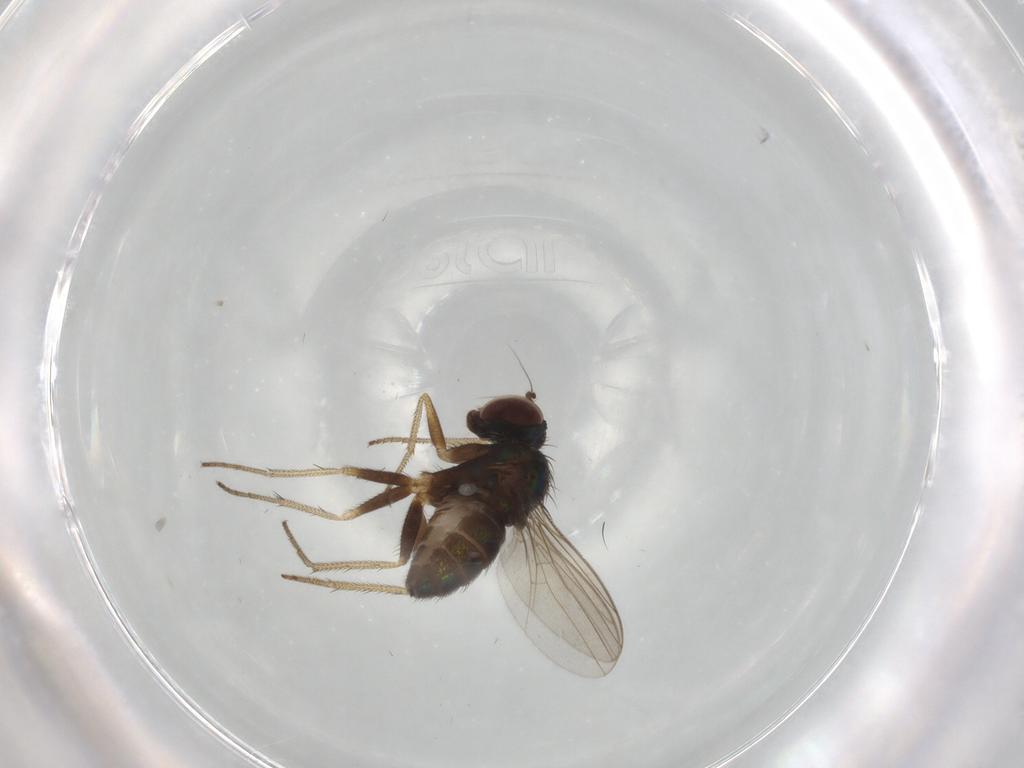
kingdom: Animalia
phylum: Arthropoda
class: Insecta
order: Diptera
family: Dolichopodidae
